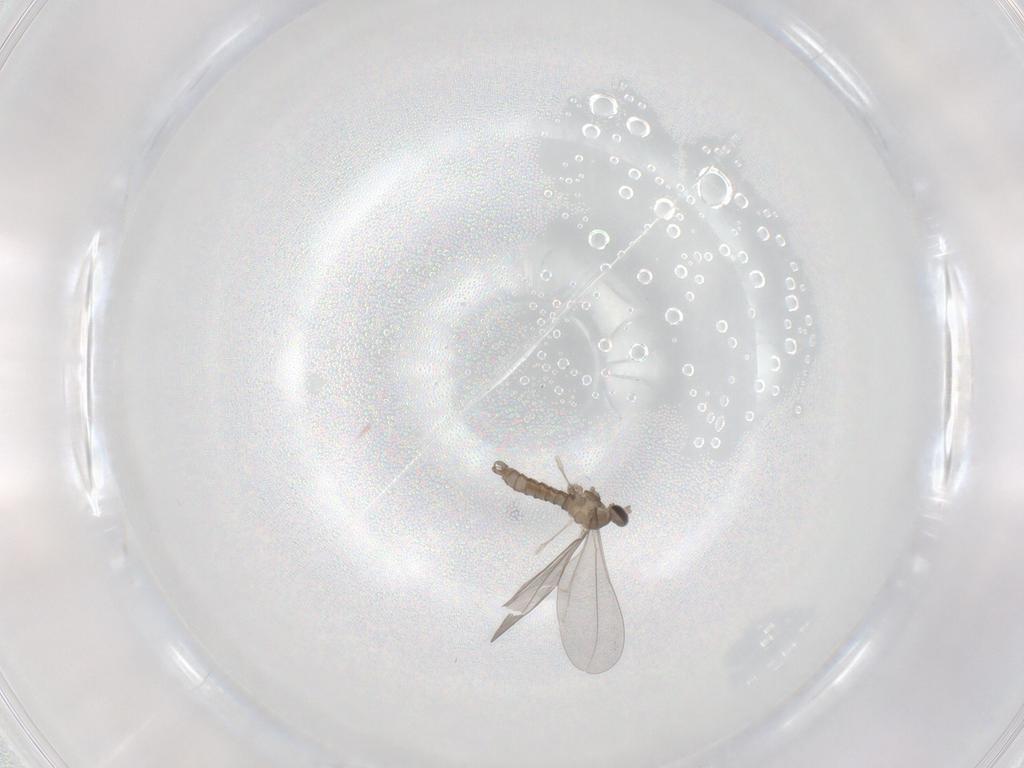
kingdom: Animalia
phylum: Arthropoda
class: Insecta
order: Diptera
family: Cecidomyiidae
